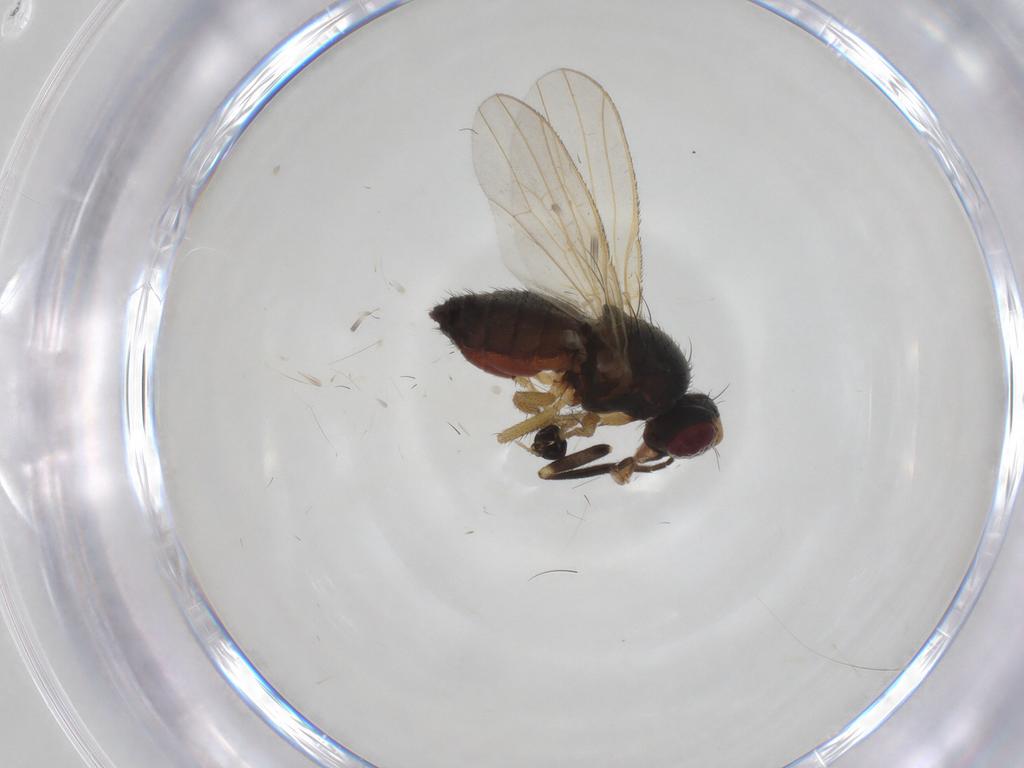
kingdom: Animalia
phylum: Arthropoda
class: Insecta
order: Diptera
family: Heleomyzidae
